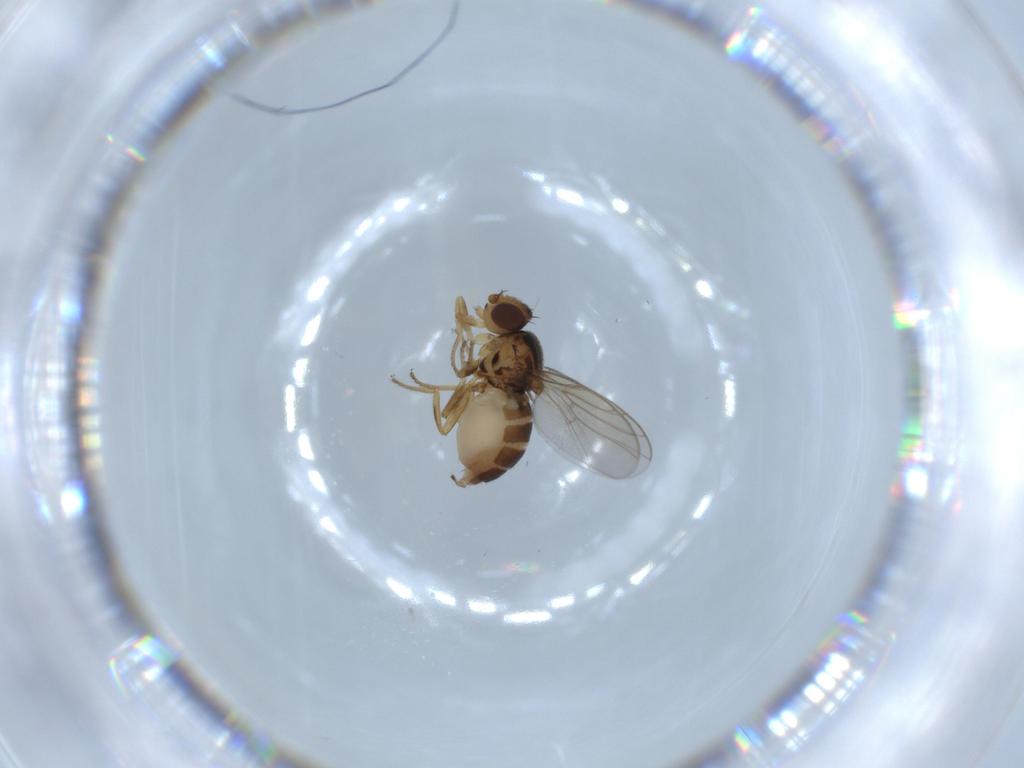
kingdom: Animalia
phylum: Arthropoda
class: Insecta
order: Diptera
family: Chloropidae
